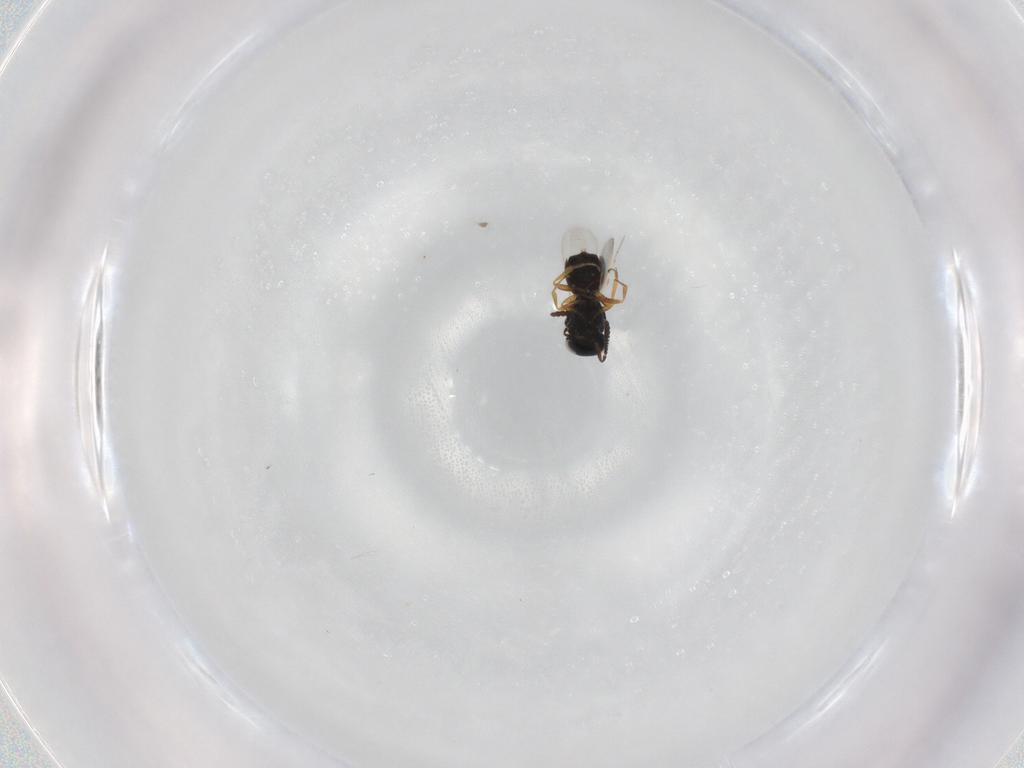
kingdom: Animalia
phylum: Arthropoda
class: Insecta
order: Hymenoptera
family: Scelionidae
